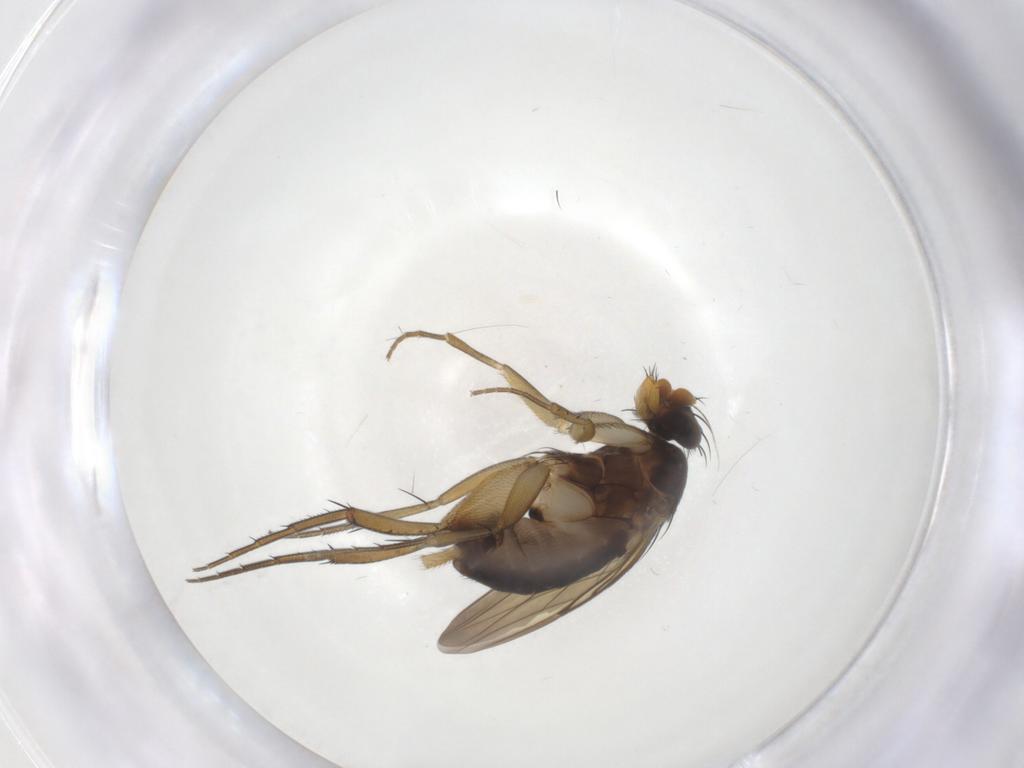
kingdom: Animalia
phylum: Arthropoda
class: Insecta
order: Diptera
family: Phoridae
